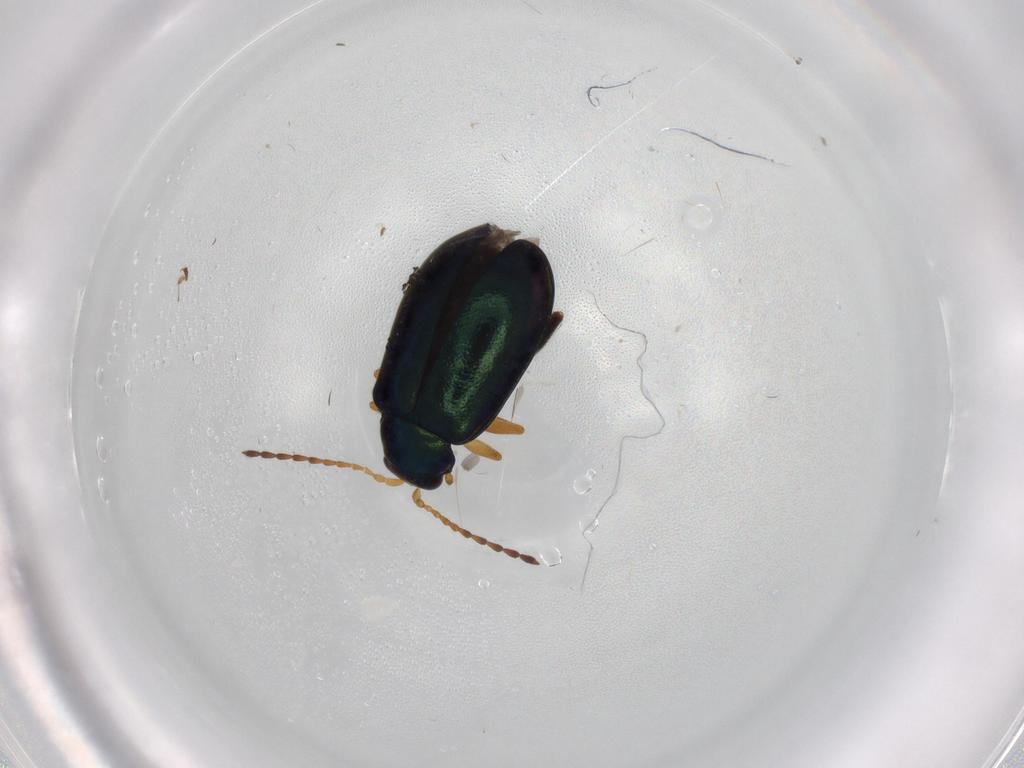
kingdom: Animalia
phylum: Arthropoda
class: Insecta
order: Coleoptera
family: Chrysomelidae
